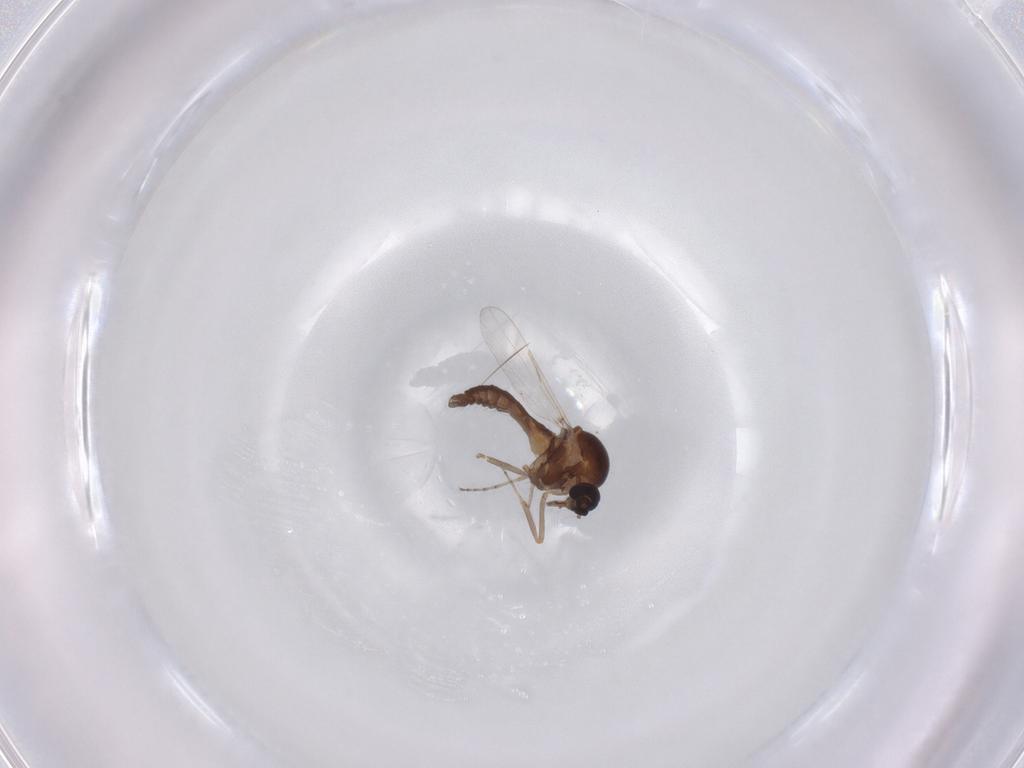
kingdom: Animalia
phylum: Arthropoda
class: Insecta
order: Diptera
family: Ceratopogonidae
